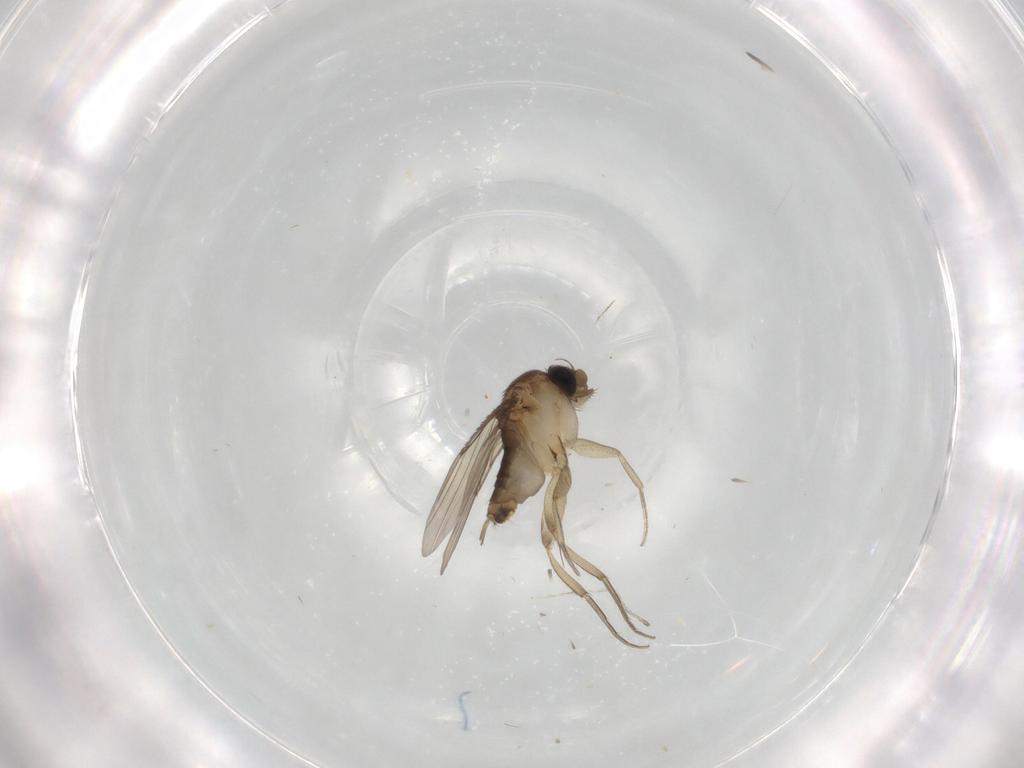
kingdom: Animalia
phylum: Arthropoda
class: Insecta
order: Diptera
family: Cecidomyiidae
